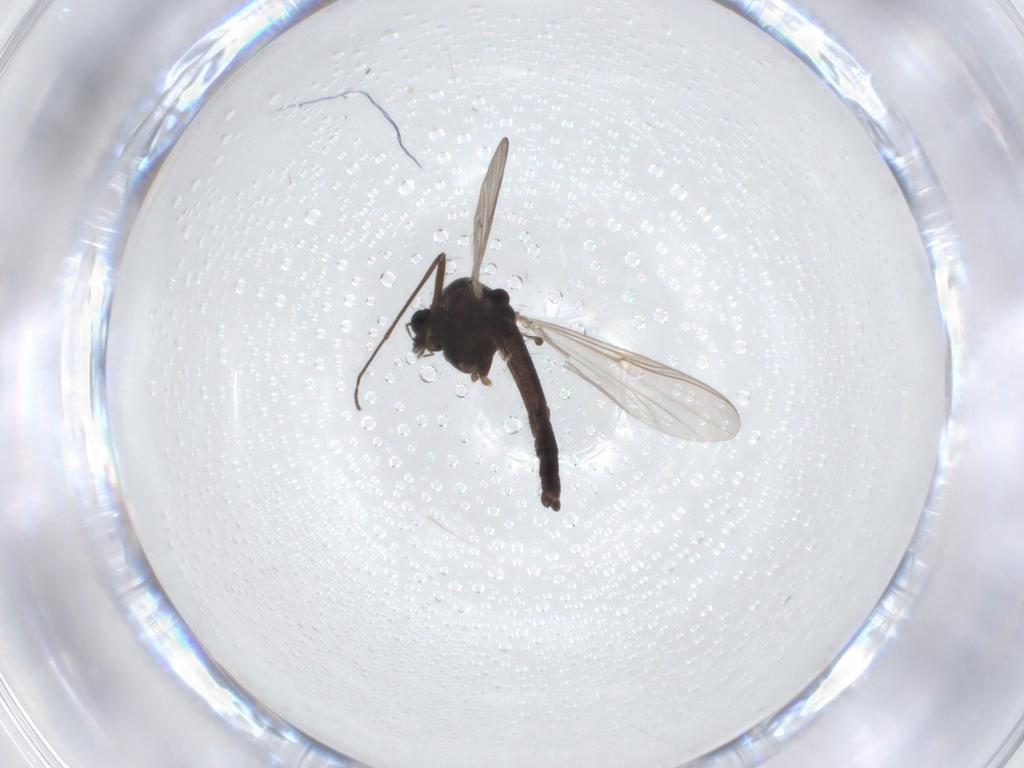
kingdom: Animalia
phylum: Arthropoda
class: Insecta
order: Diptera
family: Chironomidae
